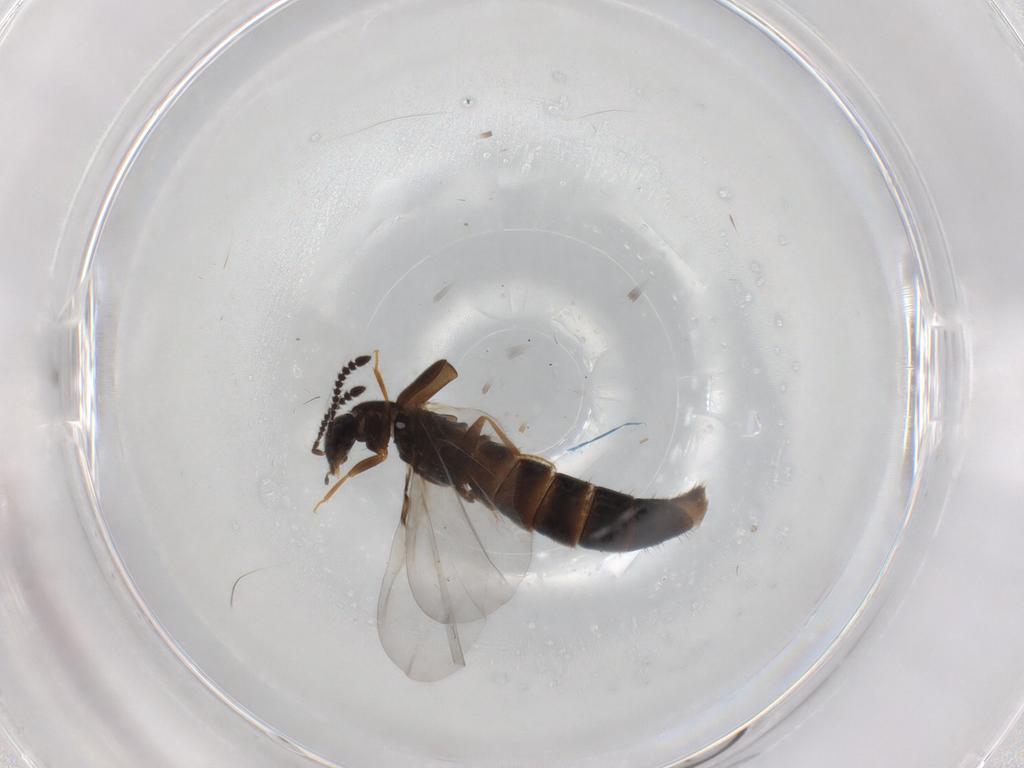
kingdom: Animalia
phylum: Arthropoda
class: Insecta
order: Coleoptera
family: Staphylinidae
